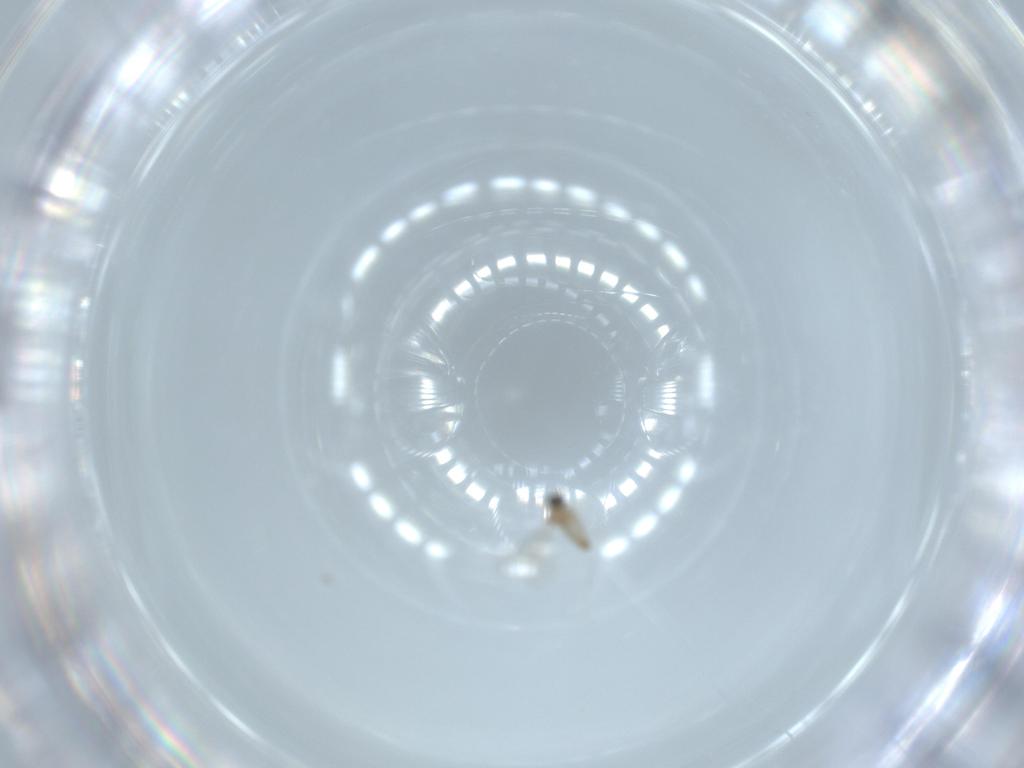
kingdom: Animalia
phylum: Arthropoda
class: Insecta
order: Diptera
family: Cecidomyiidae
